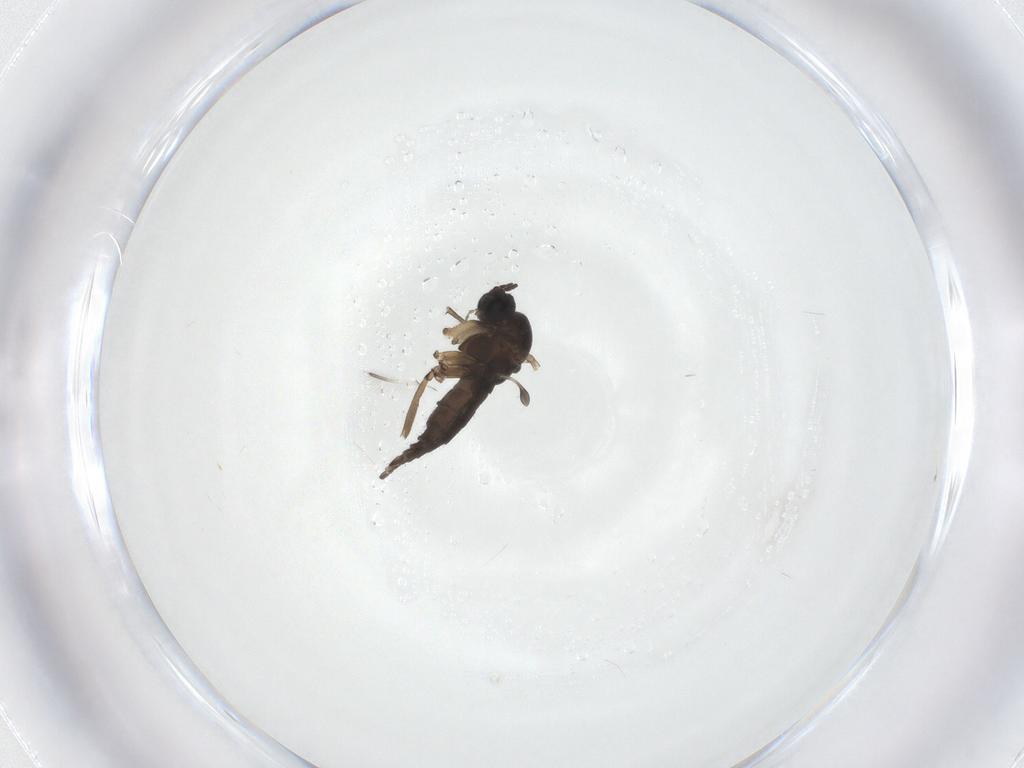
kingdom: Animalia
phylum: Arthropoda
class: Insecta
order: Diptera
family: Sciaridae
